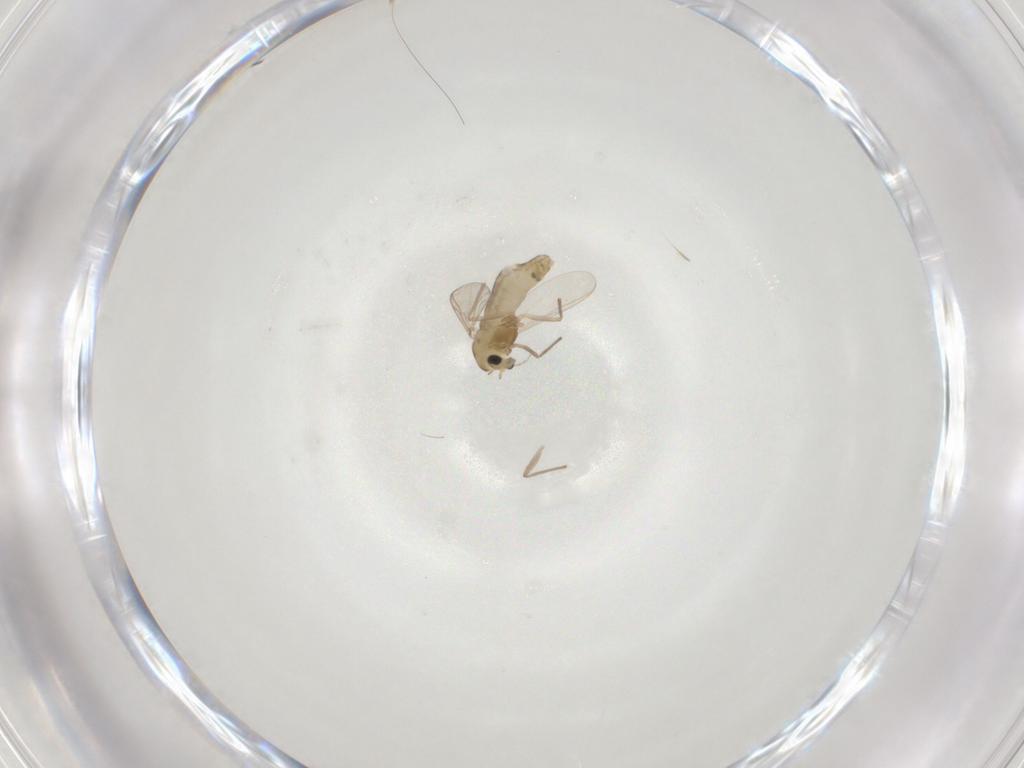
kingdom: Animalia
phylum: Arthropoda
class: Insecta
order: Diptera
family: Chironomidae
